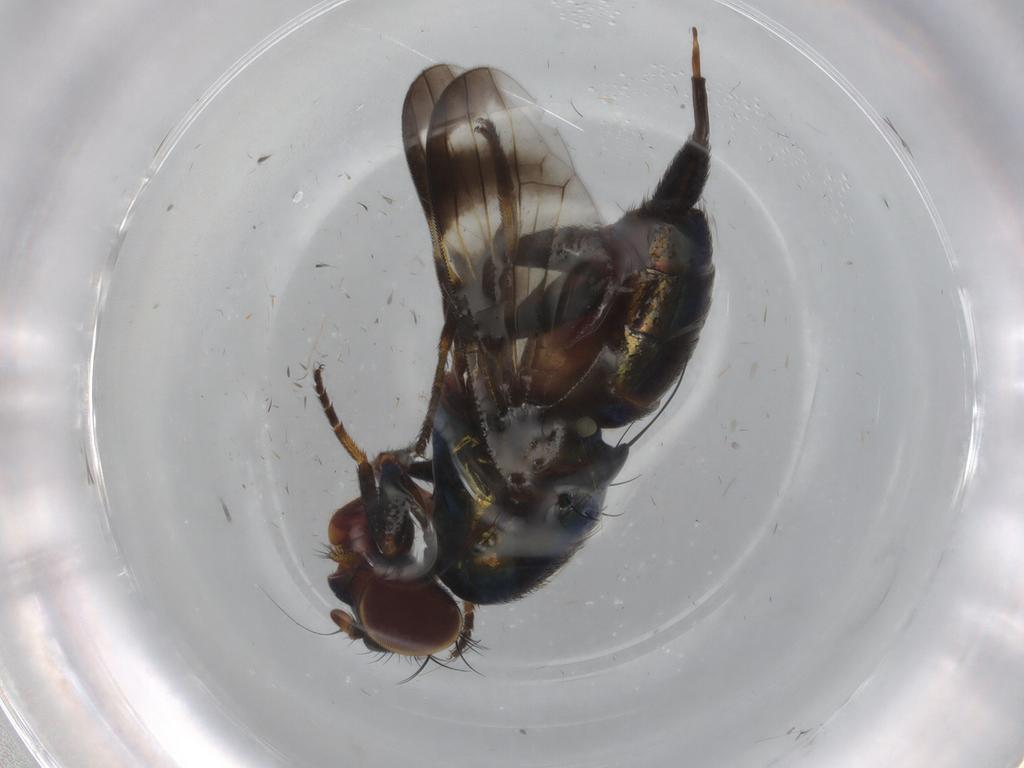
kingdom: Animalia
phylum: Arthropoda
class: Insecta
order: Diptera
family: Ulidiidae
